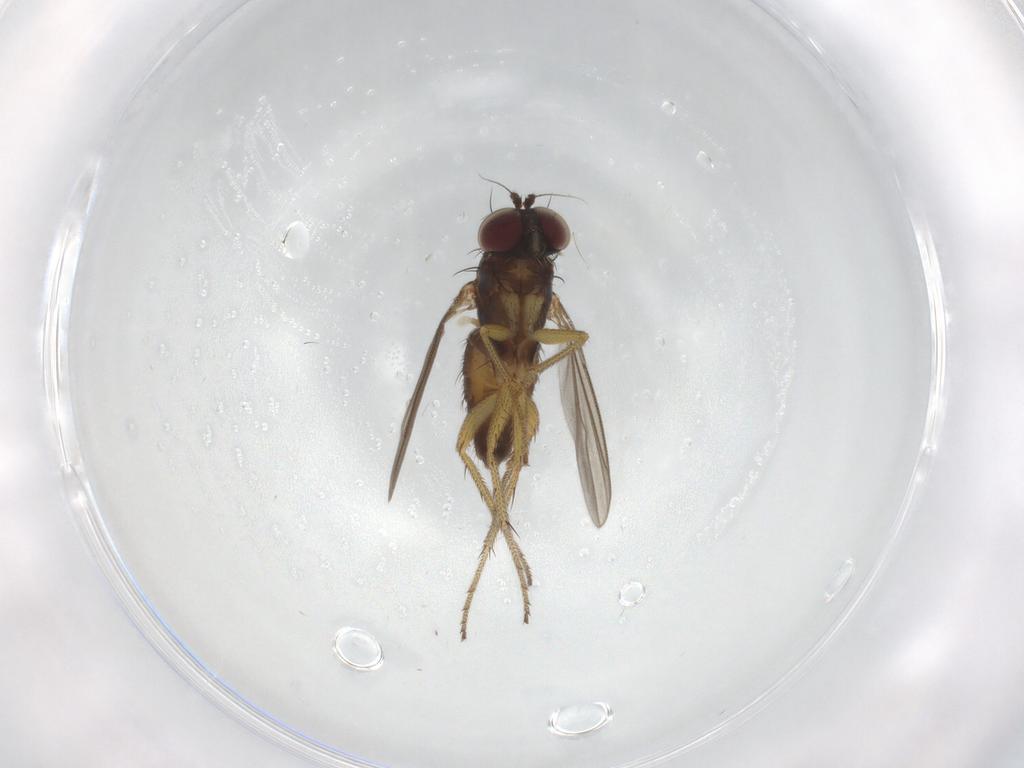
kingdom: Animalia
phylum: Arthropoda
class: Insecta
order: Diptera
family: Dolichopodidae
